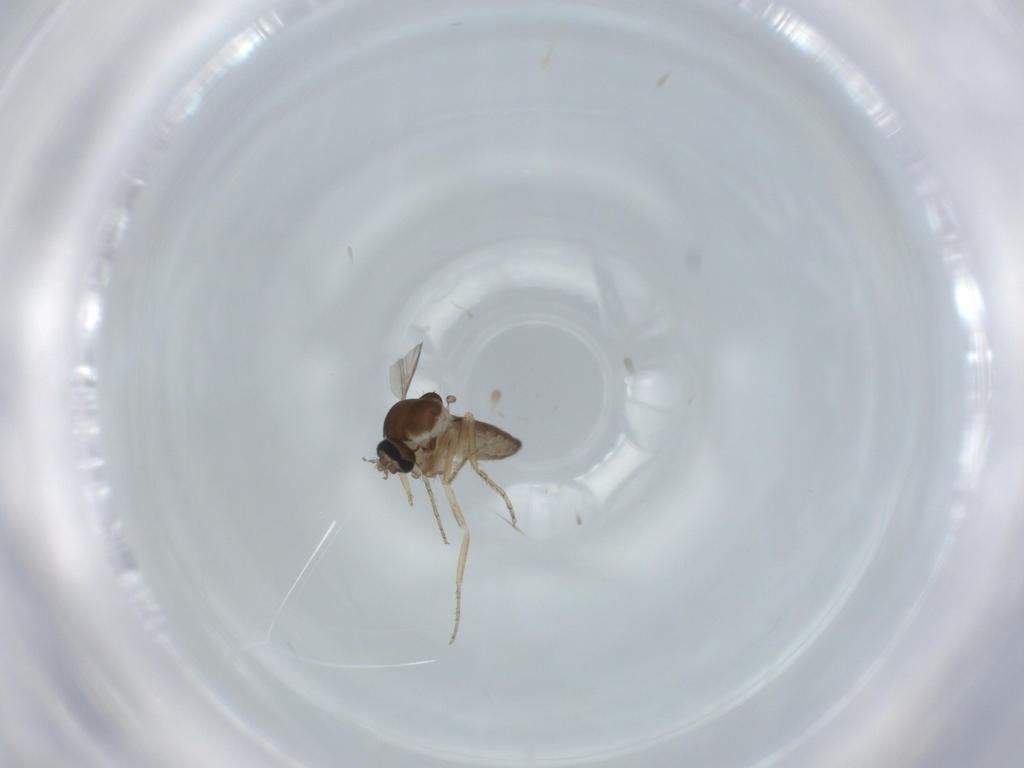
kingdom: Animalia
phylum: Arthropoda
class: Insecta
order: Diptera
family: Ceratopogonidae
